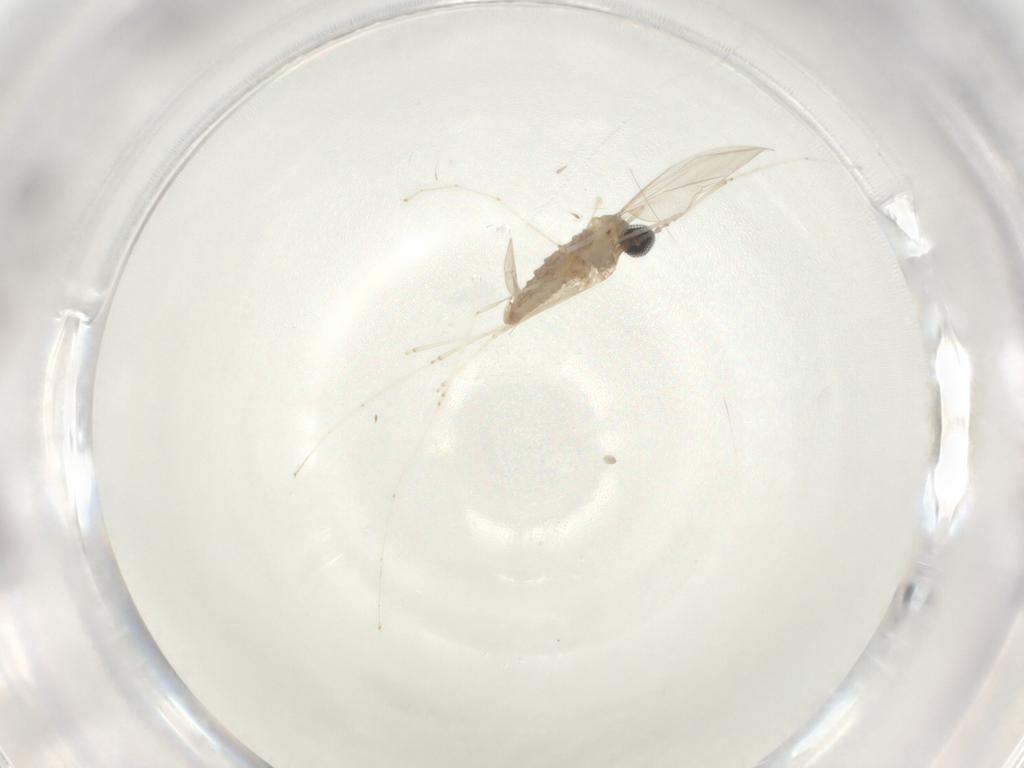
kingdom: Animalia
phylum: Arthropoda
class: Insecta
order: Diptera
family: Cecidomyiidae
